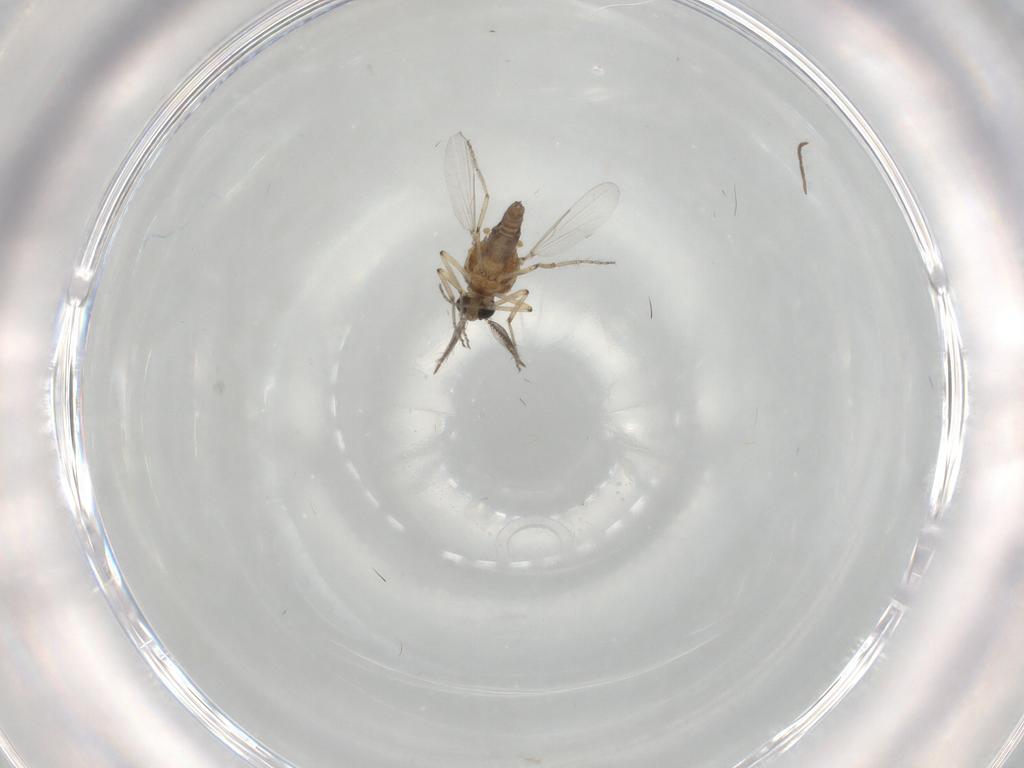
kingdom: Animalia
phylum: Arthropoda
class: Insecta
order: Diptera
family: Ceratopogonidae
